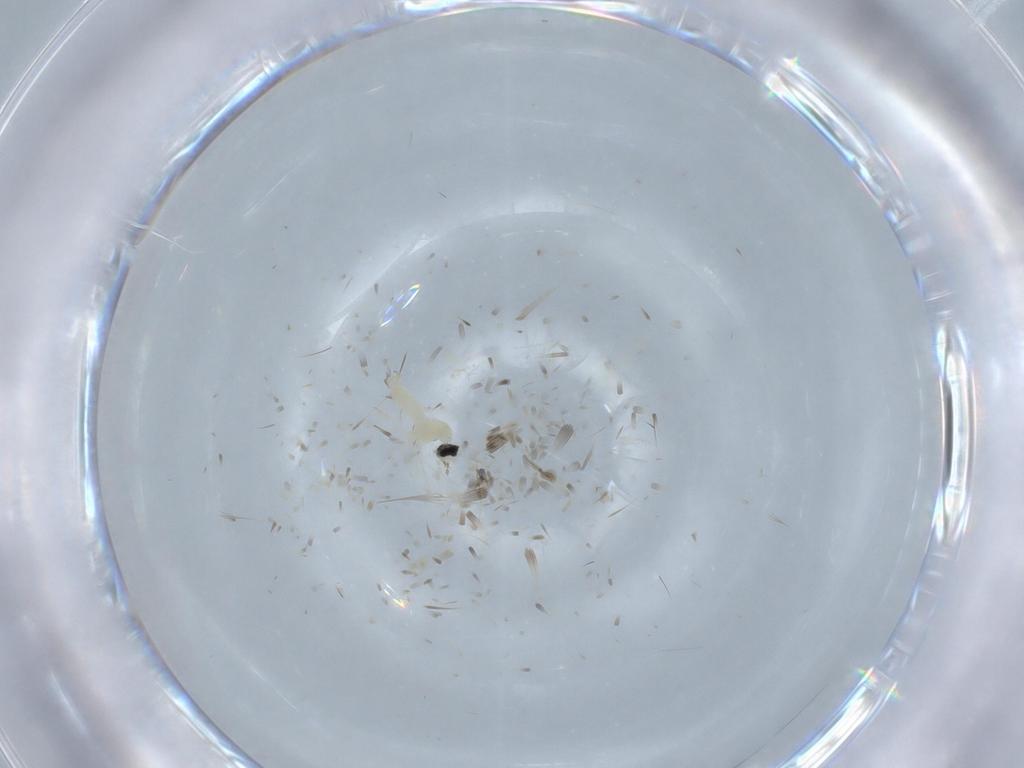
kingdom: Animalia
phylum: Arthropoda
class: Insecta
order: Diptera
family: Cecidomyiidae
